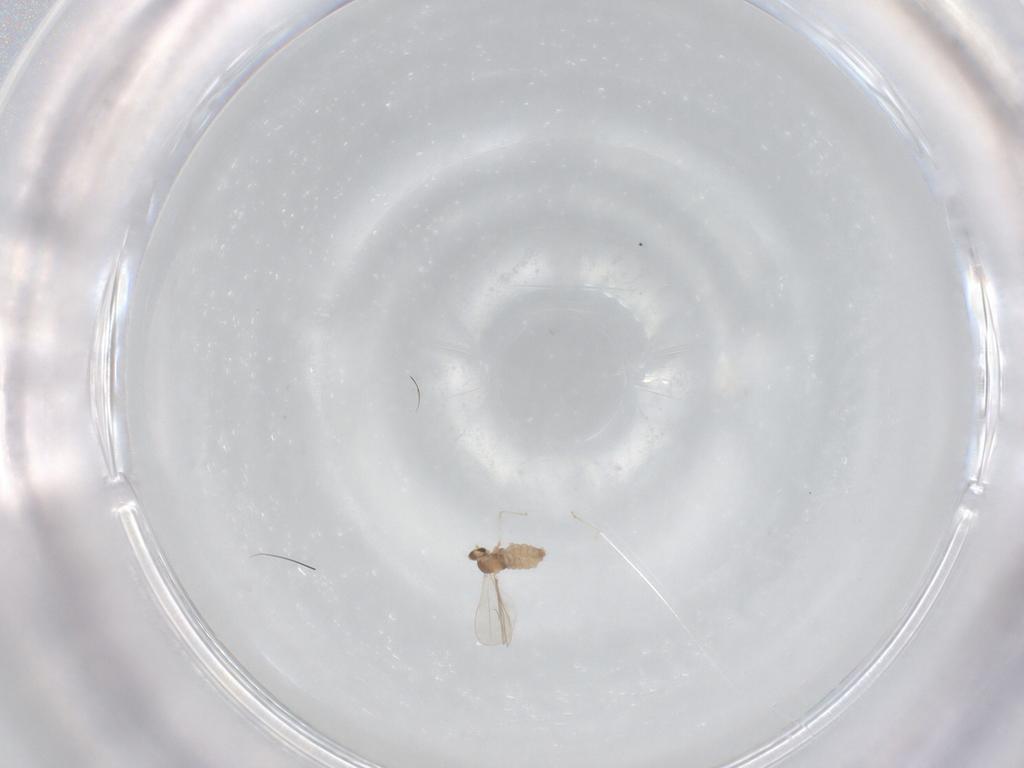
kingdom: Animalia
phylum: Arthropoda
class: Insecta
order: Diptera
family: Cecidomyiidae
